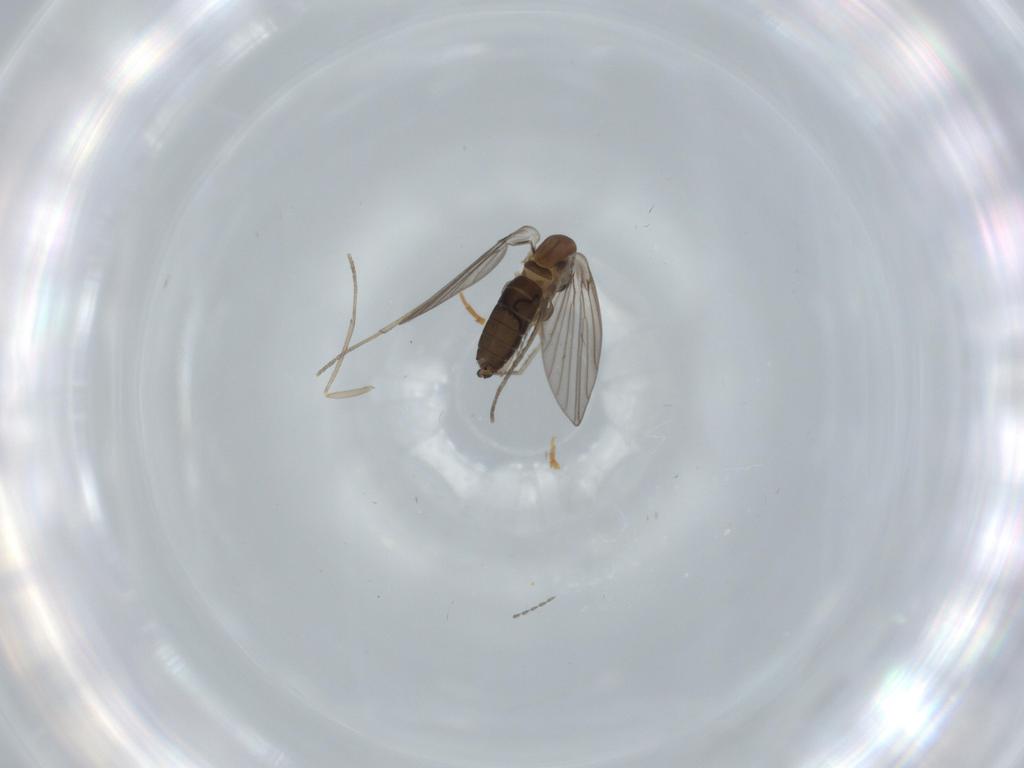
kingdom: Animalia
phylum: Arthropoda
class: Insecta
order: Diptera
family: Psychodidae
